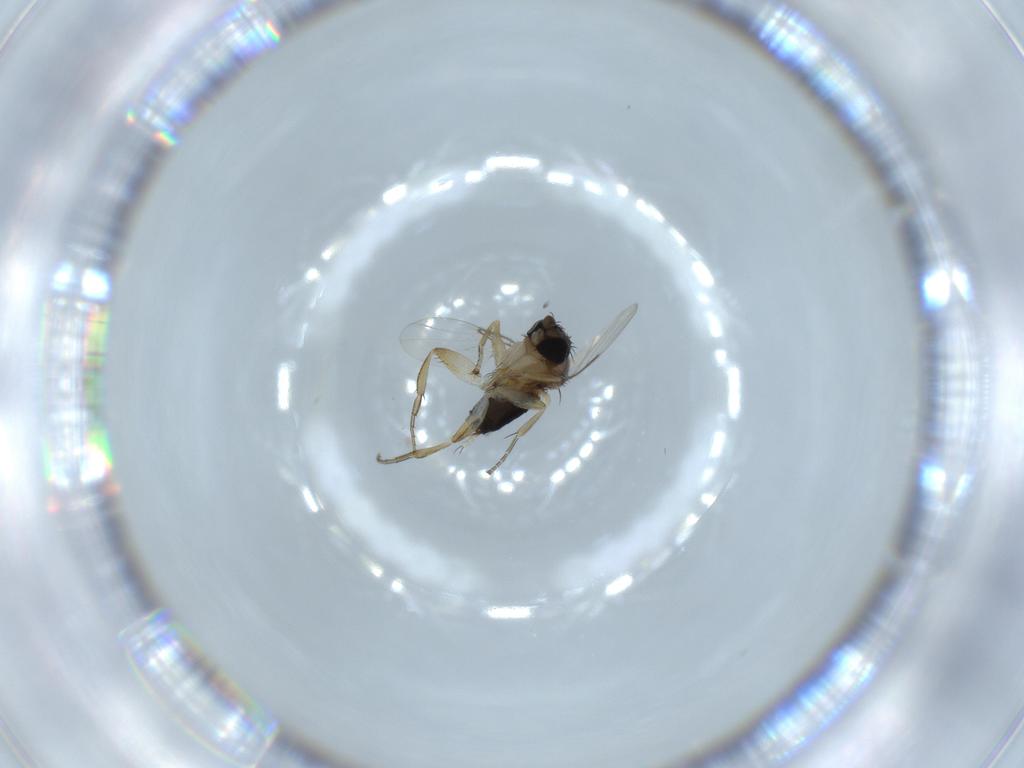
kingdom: Animalia
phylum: Arthropoda
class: Insecta
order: Diptera
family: Phoridae
